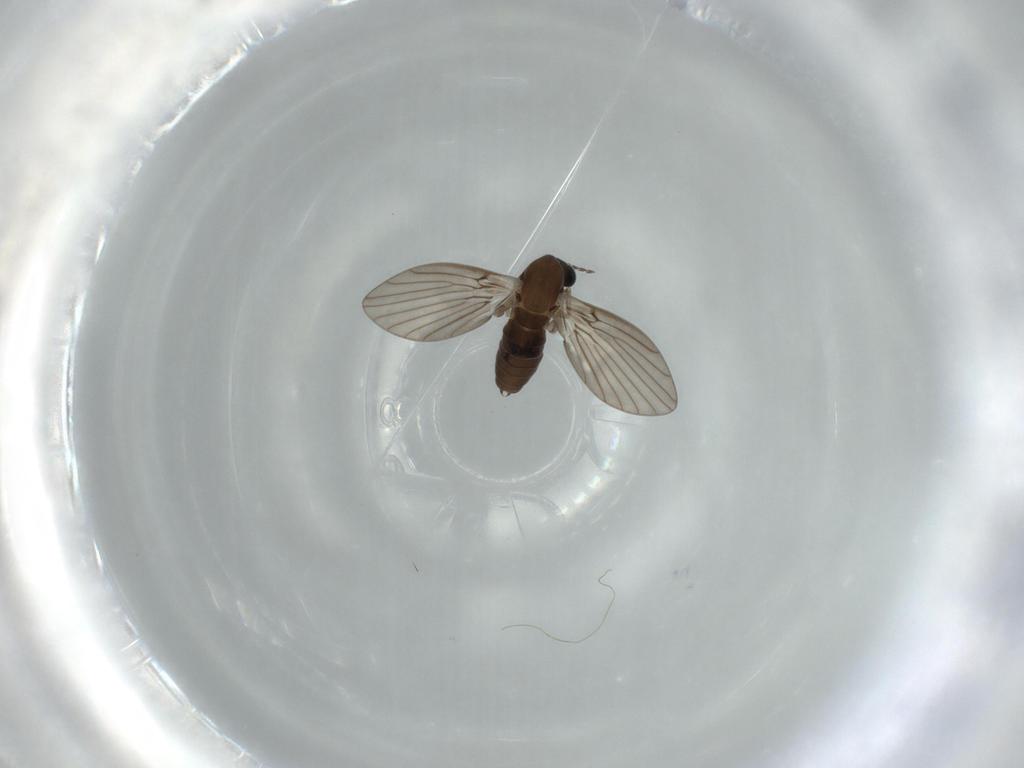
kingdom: Animalia
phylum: Arthropoda
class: Insecta
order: Diptera
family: Psychodidae
